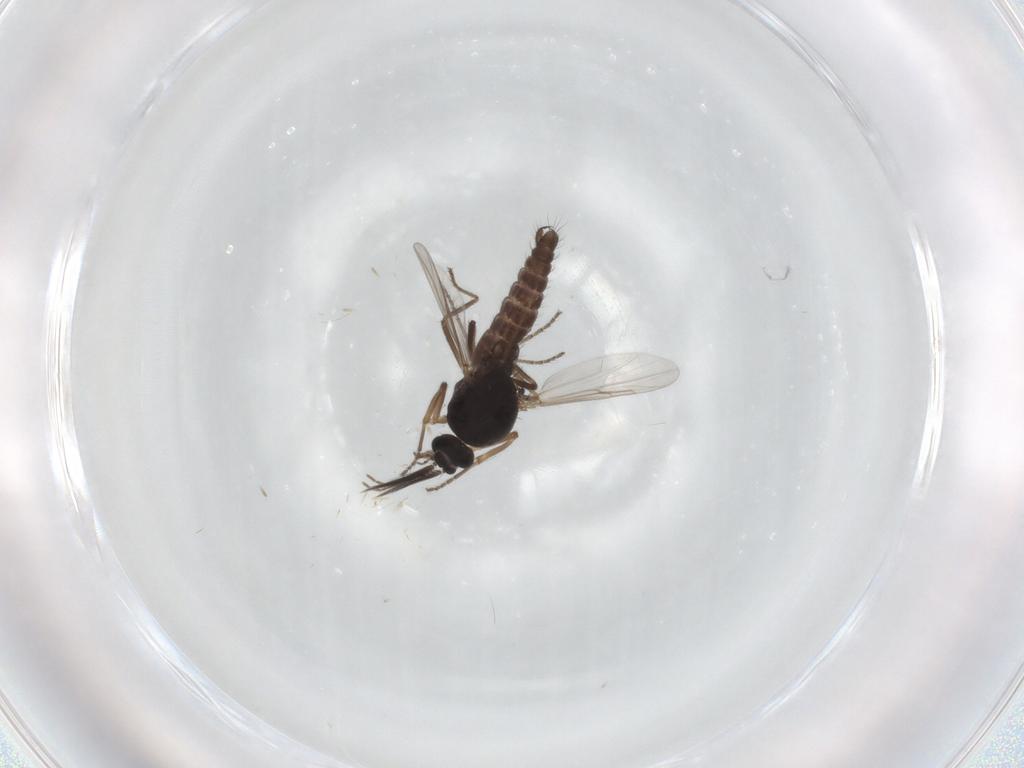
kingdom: Animalia
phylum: Arthropoda
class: Insecta
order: Diptera
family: Ceratopogonidae
